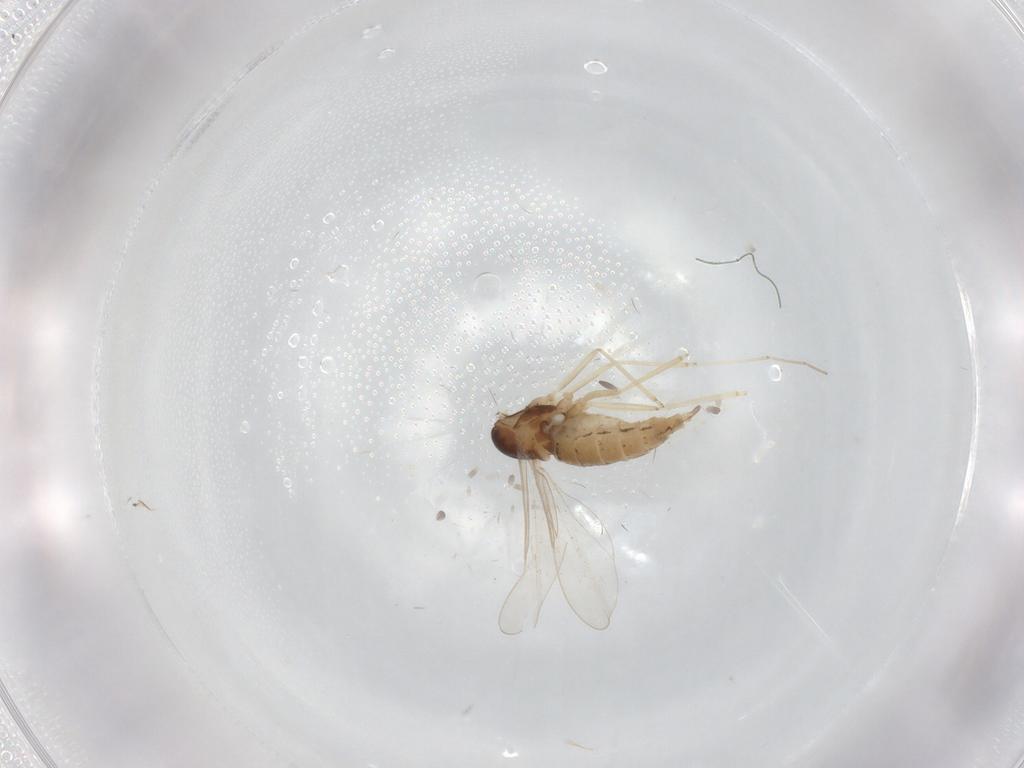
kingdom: Animalia
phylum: Arthropoda
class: Insecta
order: Diptera
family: Cecidomyiidae
